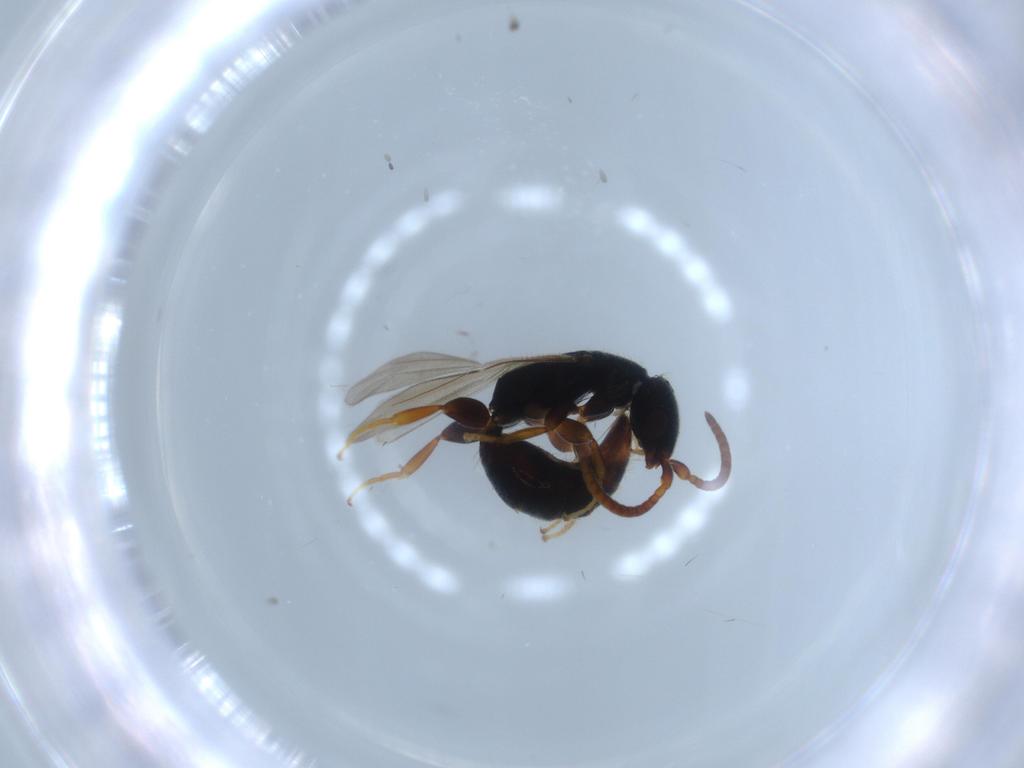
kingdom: Animalia
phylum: Arthropoda
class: Insecta
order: Hymenoptera
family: Bethylidae
